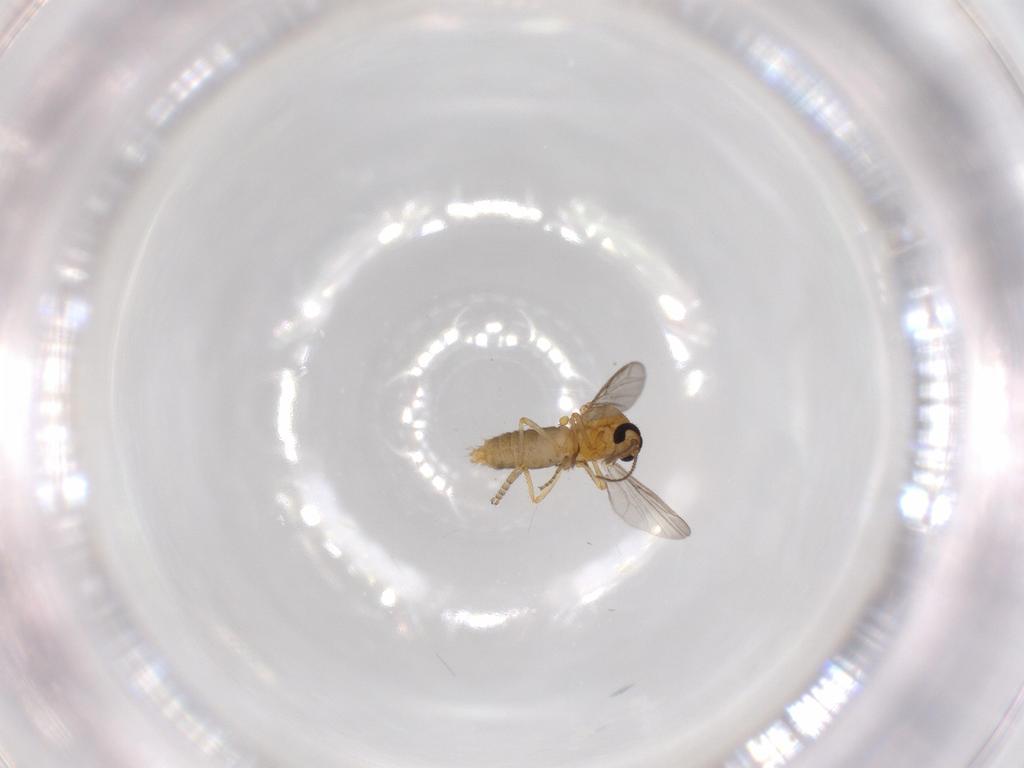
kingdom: Animalia
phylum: Arthropoda
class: Insecta
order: Diptera
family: Ceratopogonidae
